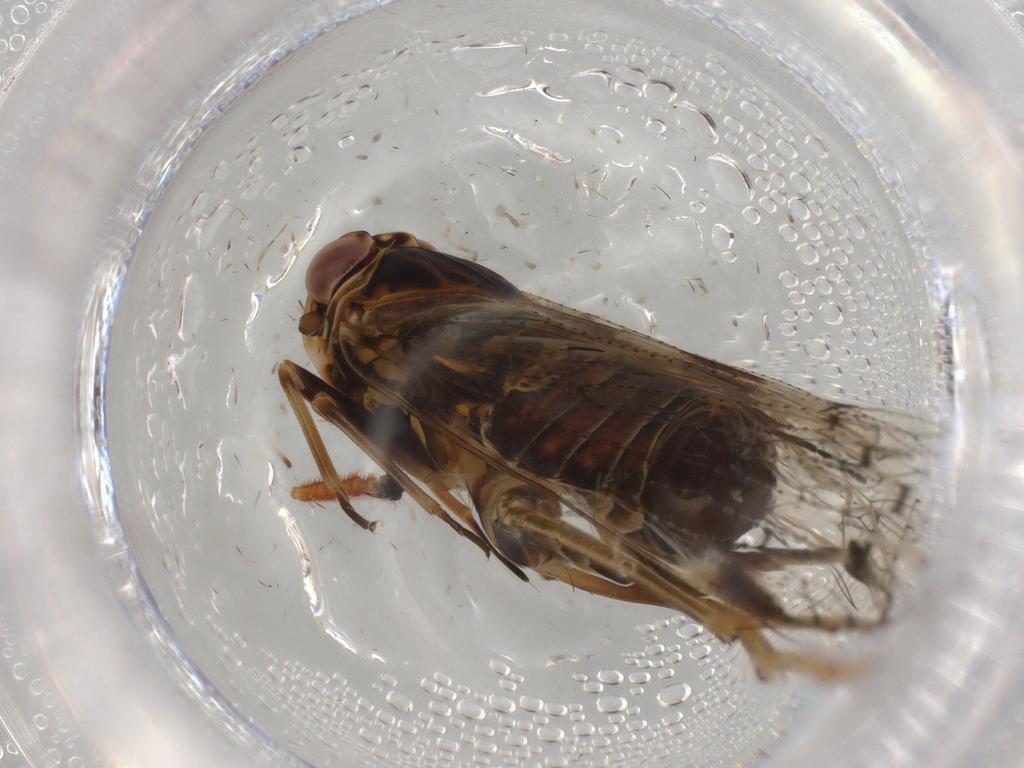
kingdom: Animalia
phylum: Arthropoda
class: Insecta
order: Hemiptera
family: Cixiidae
